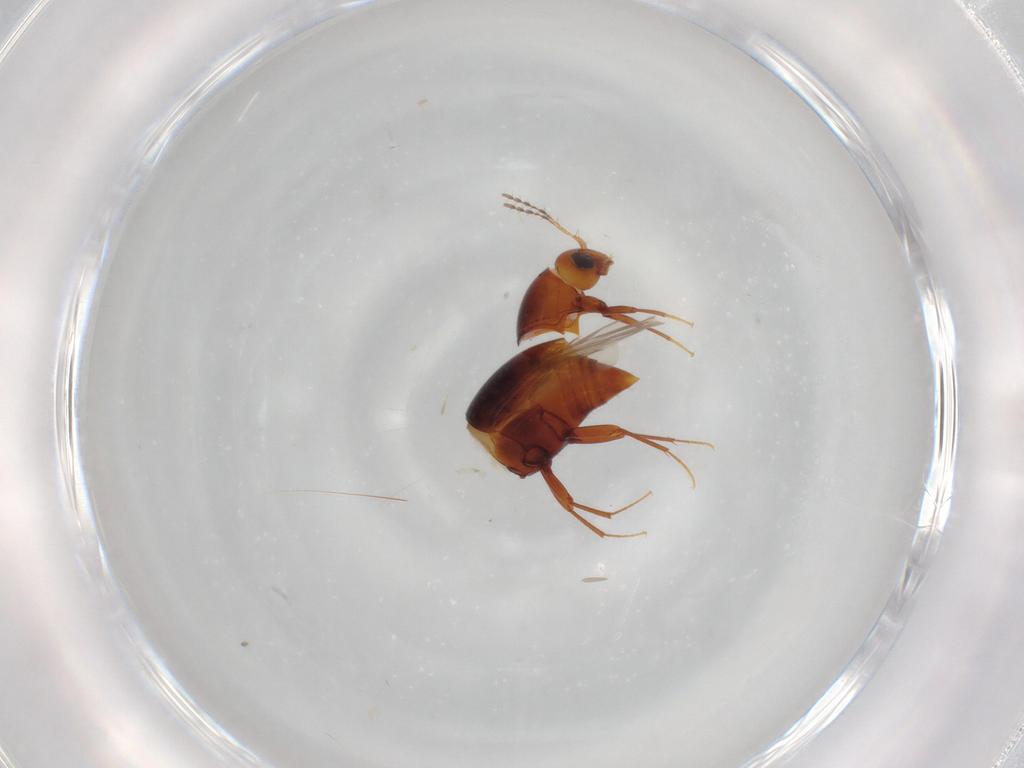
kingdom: Animalia
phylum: Arthropoda
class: Insecta
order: Coleoptera
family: Staphylinidae
